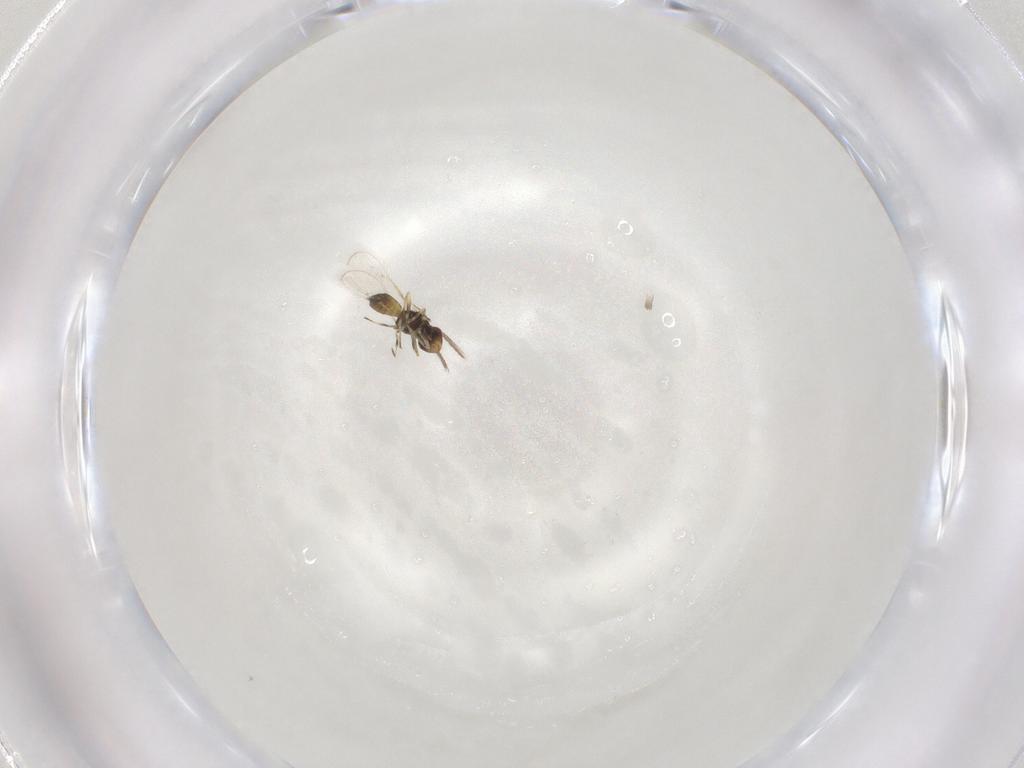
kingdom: Animalia
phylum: Arthropoda
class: Insecta
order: Hymenoptera
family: Eulophidae
